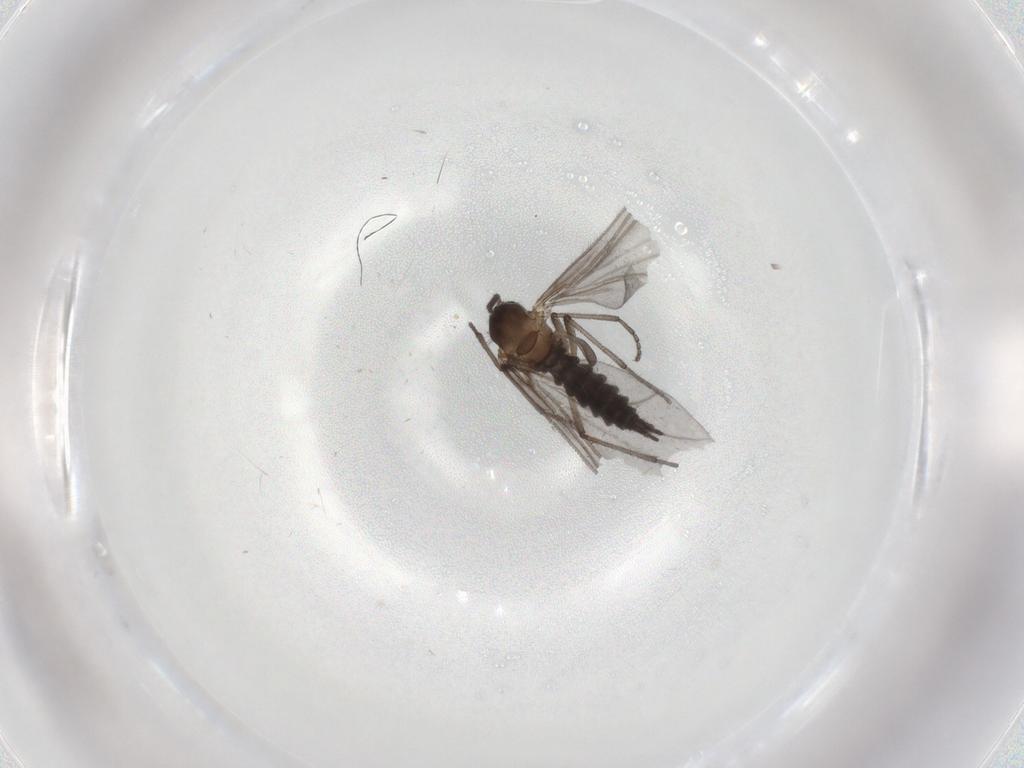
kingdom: Animalia
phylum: Arthropoda
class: Insecta
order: Diptera
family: Sciaridae
